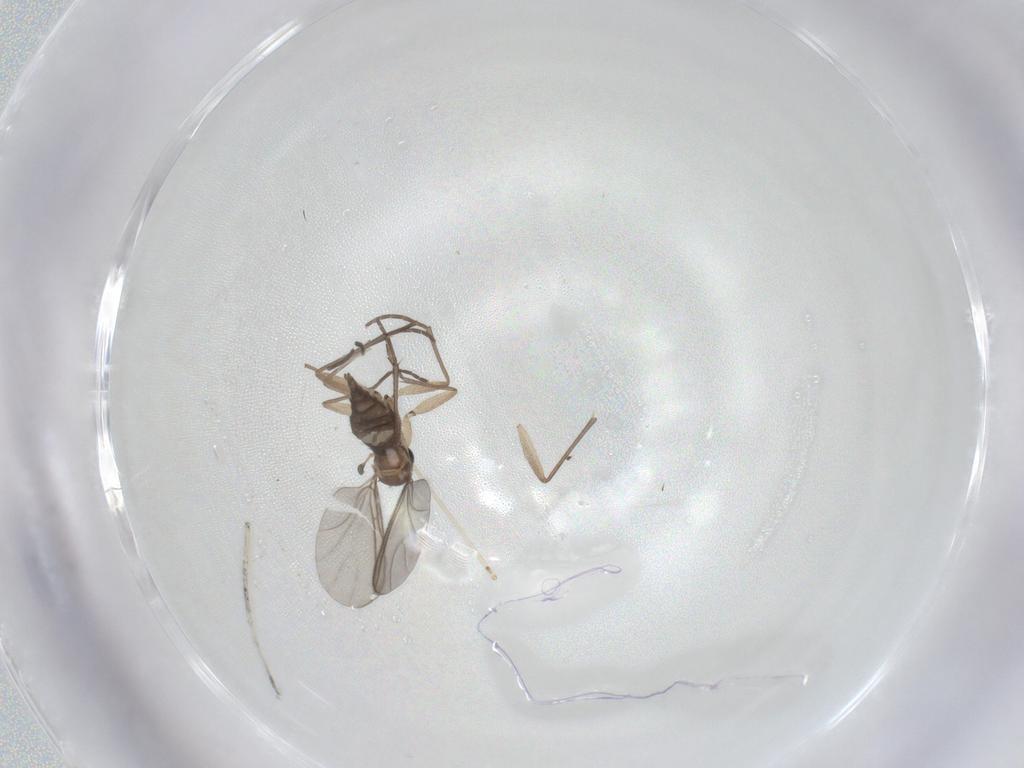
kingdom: Animalia
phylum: Arthropoda
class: Insecta
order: Diptera
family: Sciaridae
